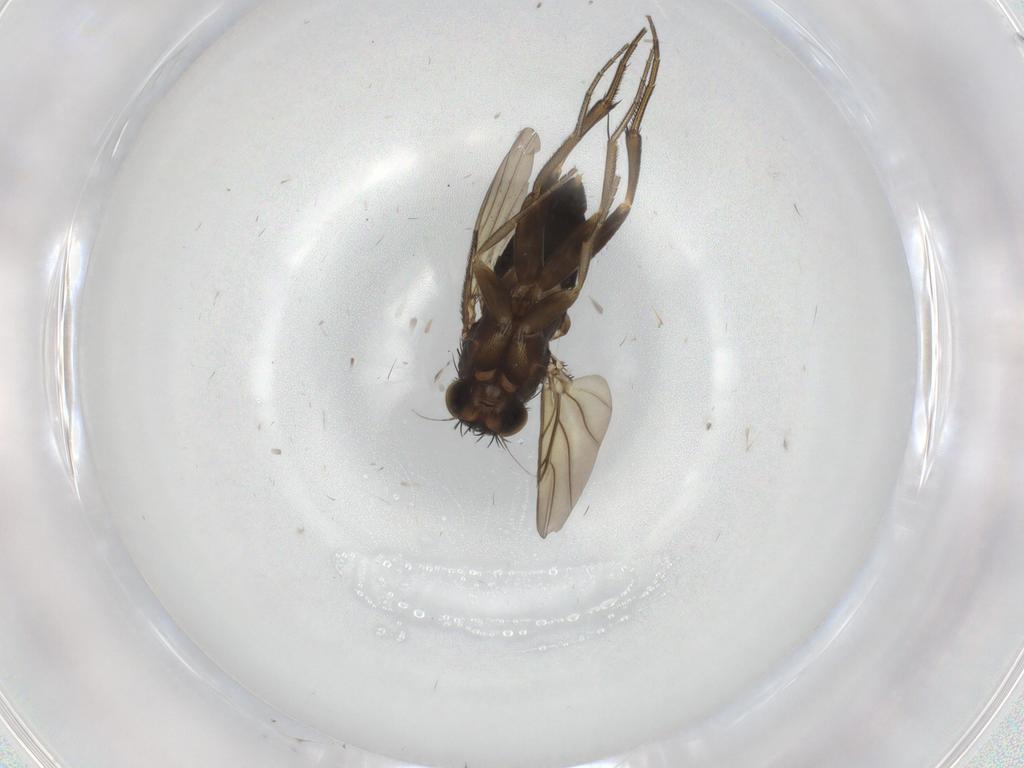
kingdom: Animalia
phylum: Arthropoda
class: Insecta
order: Diptera
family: Phoridae
